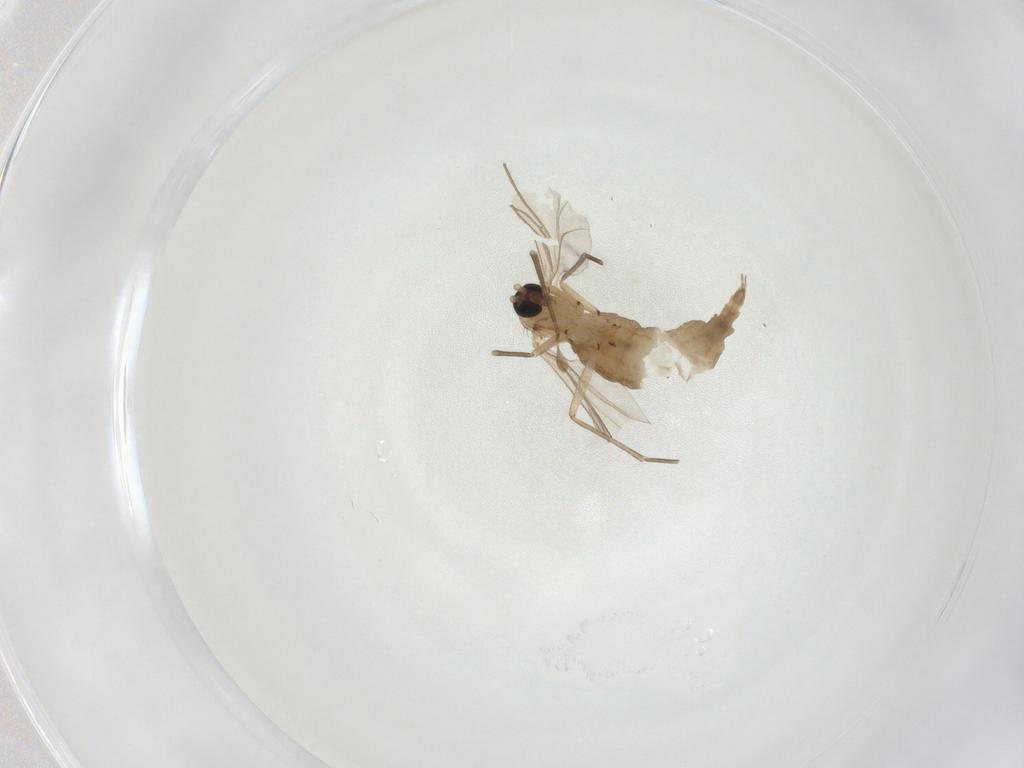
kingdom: Animalia
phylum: Arthropoda
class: Insecta
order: Diptera
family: Sciaridae
